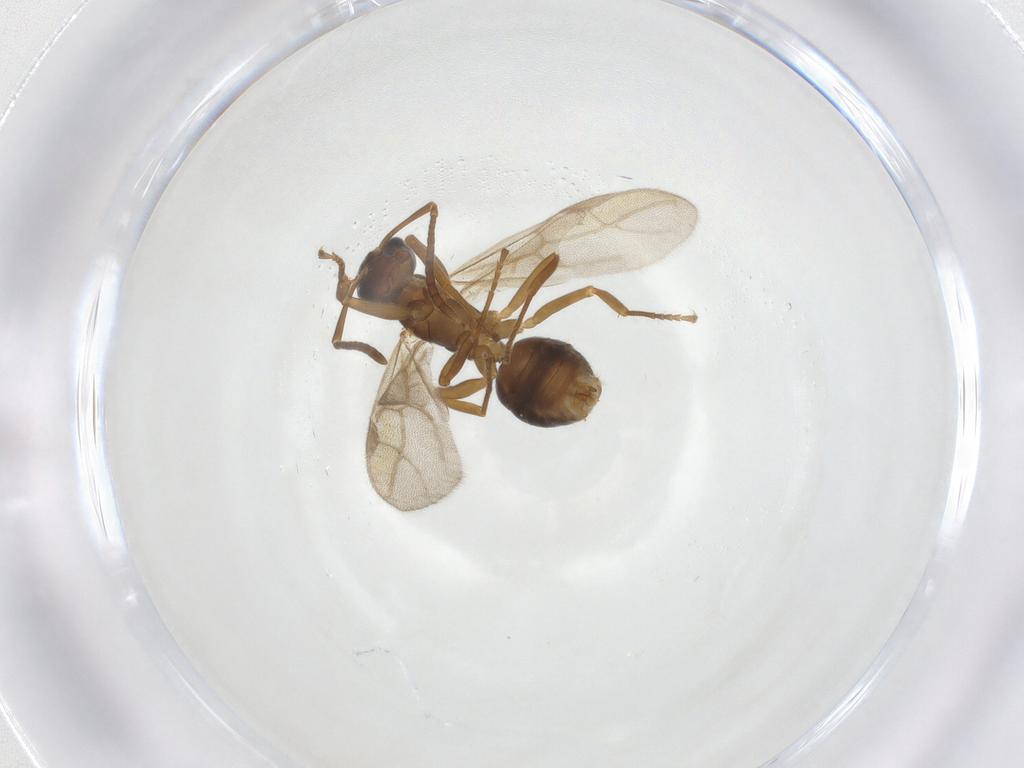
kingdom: Animalia
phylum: Arthropoda
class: Insecta
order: Hymenoptera
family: Formicidae
